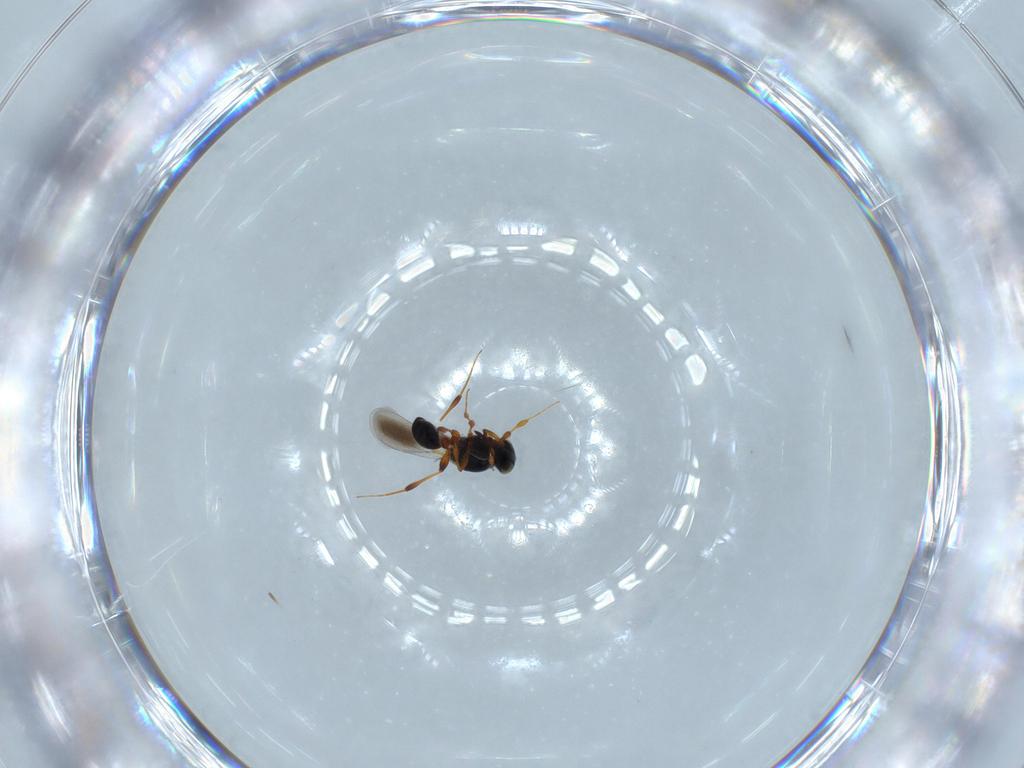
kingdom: Animalia
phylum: Arthropoda
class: Insecta
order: Hymenoptera
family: Platygastridae
